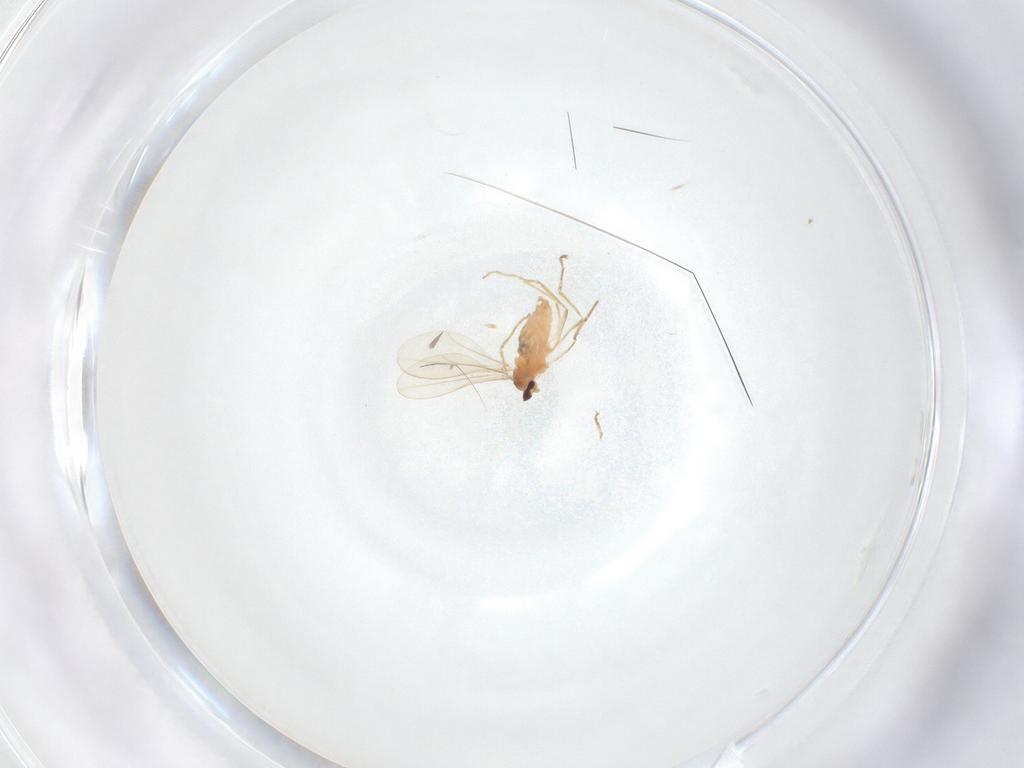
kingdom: Animalia
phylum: Arthropoda
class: Insecta
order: Diptera
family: Cecidomyiidae
